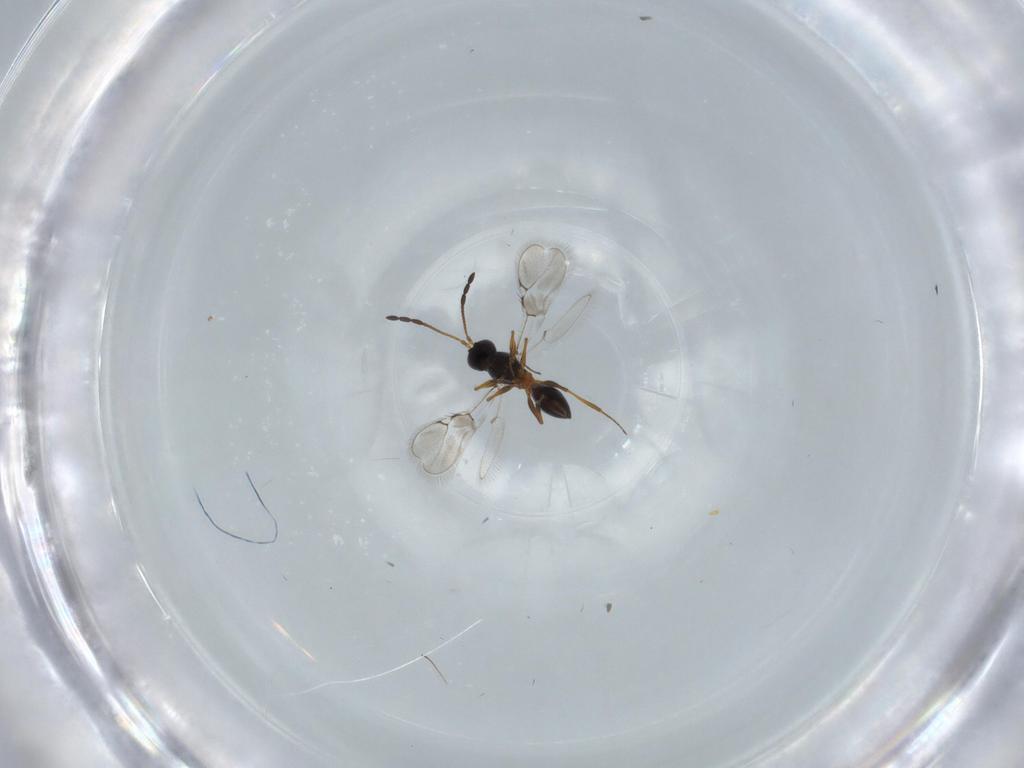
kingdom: Animalia
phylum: Arthropoda
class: Insecta
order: Hymenoptera
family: Figitidae
